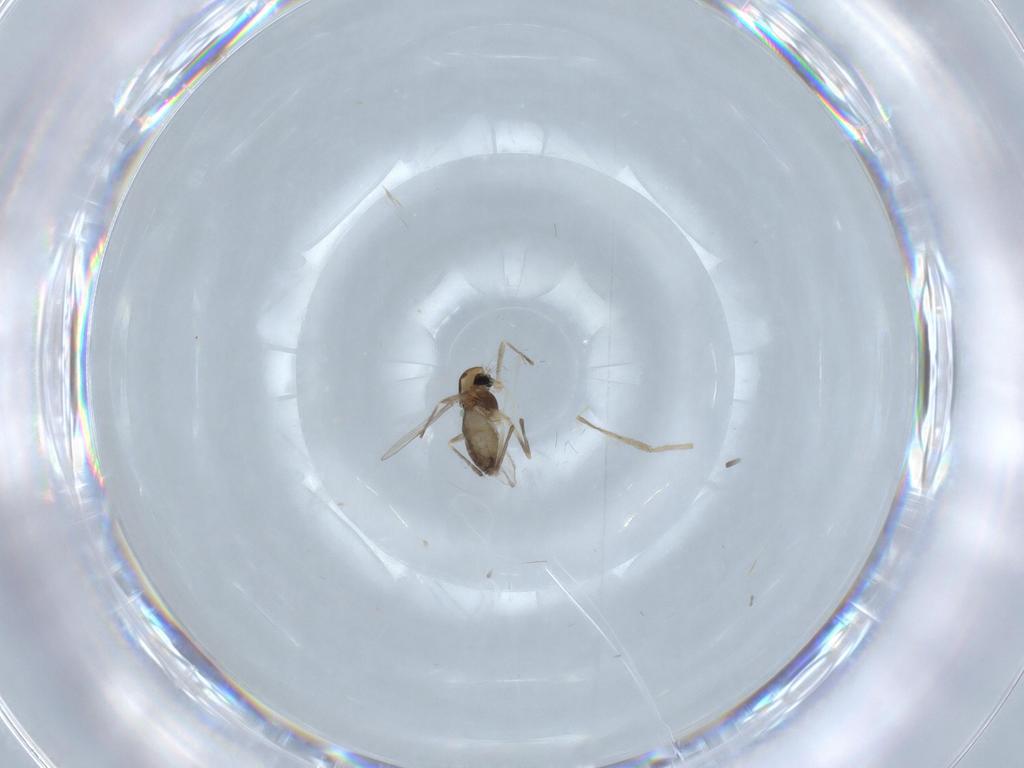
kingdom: Animalia
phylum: Arthropoda
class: Insecta
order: Diptera
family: Chironomidae
